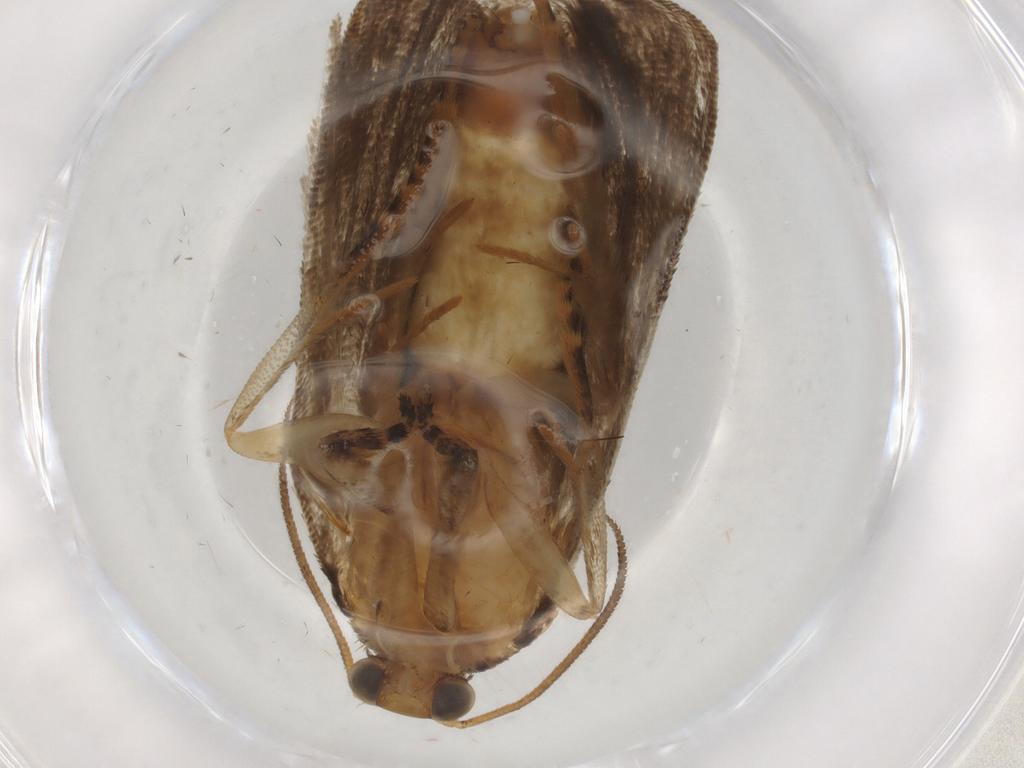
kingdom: Animalia
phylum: Arthropoda
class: Insecta
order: Lepidoptera
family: Tortricidae
